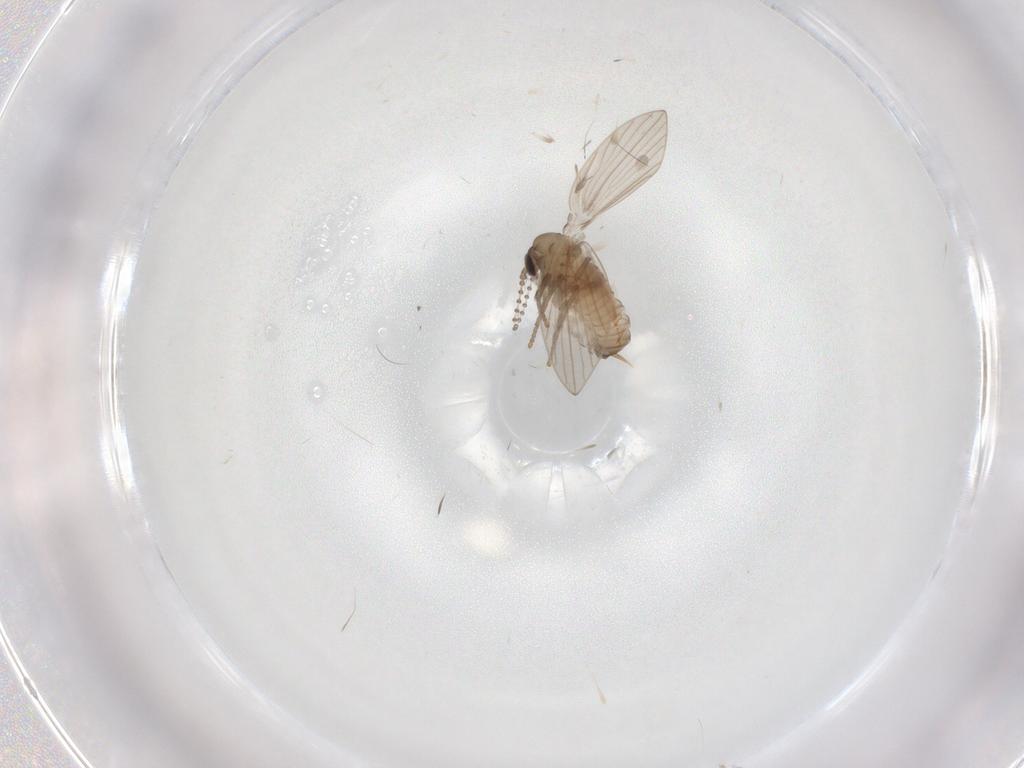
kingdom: Animalia
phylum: Arthropoda
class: Insecta
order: Diptera
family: Psychodidae
